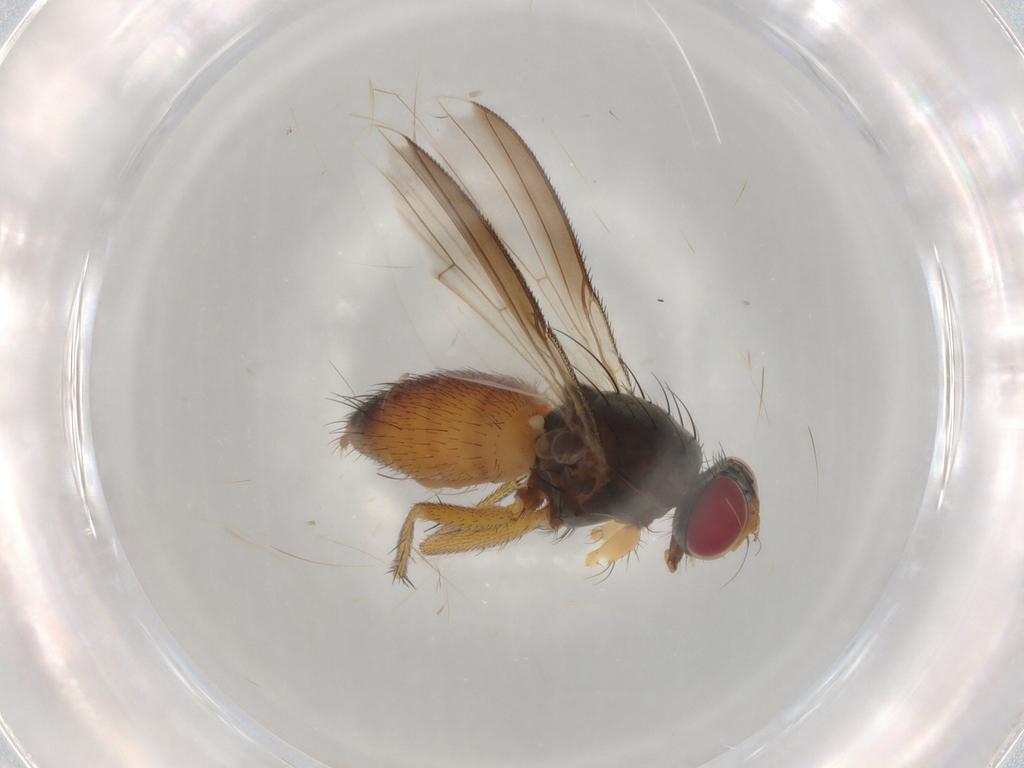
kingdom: Animalia
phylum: Arthropoda
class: Insecta
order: Diptera
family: Muscidae
